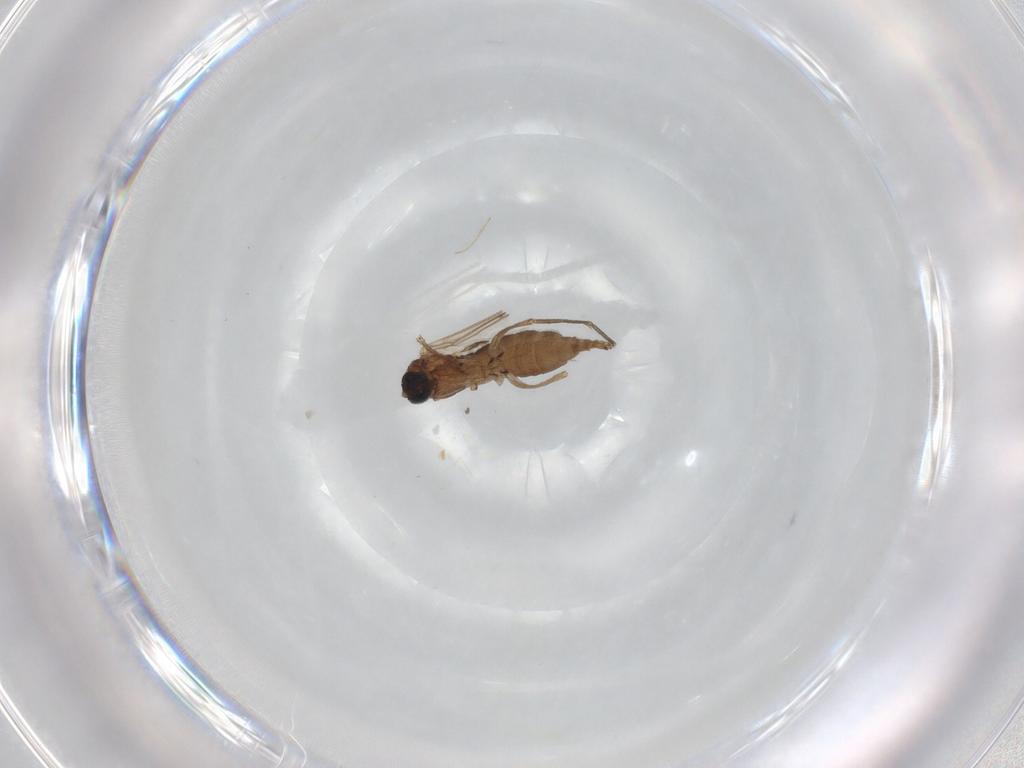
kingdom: Animalia
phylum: Arthropoda
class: Insecta
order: Diptera
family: Sciaridae
